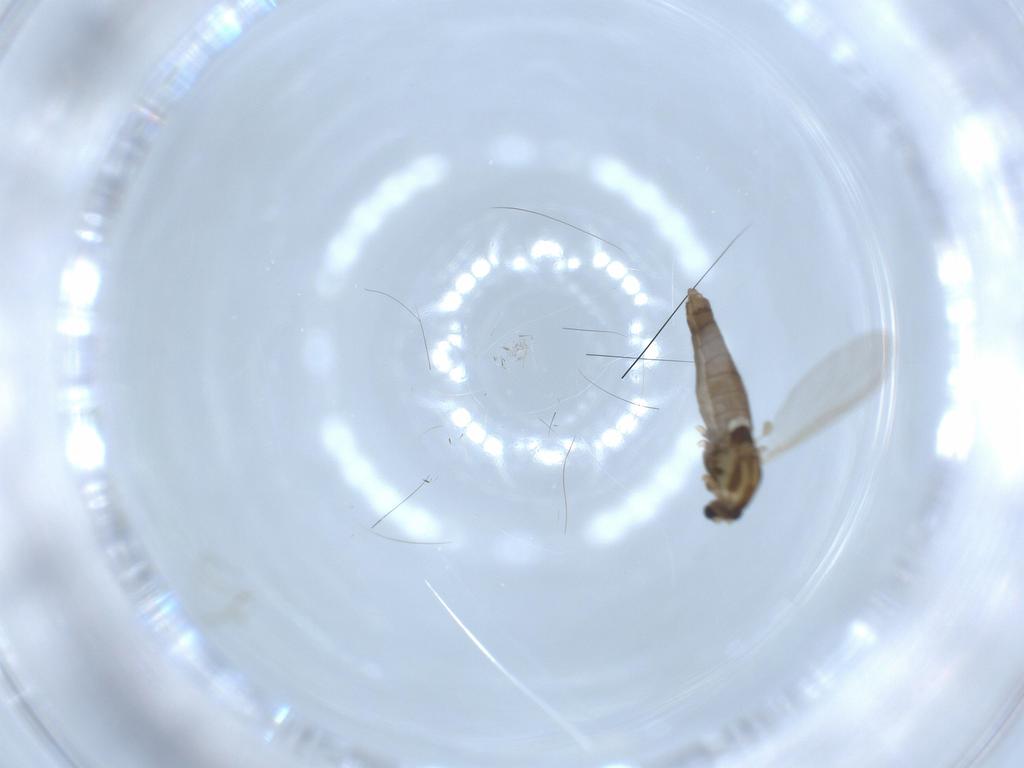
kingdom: Animalia
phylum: Arthropoda
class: Insecta
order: Diptera
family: Chironomidae
